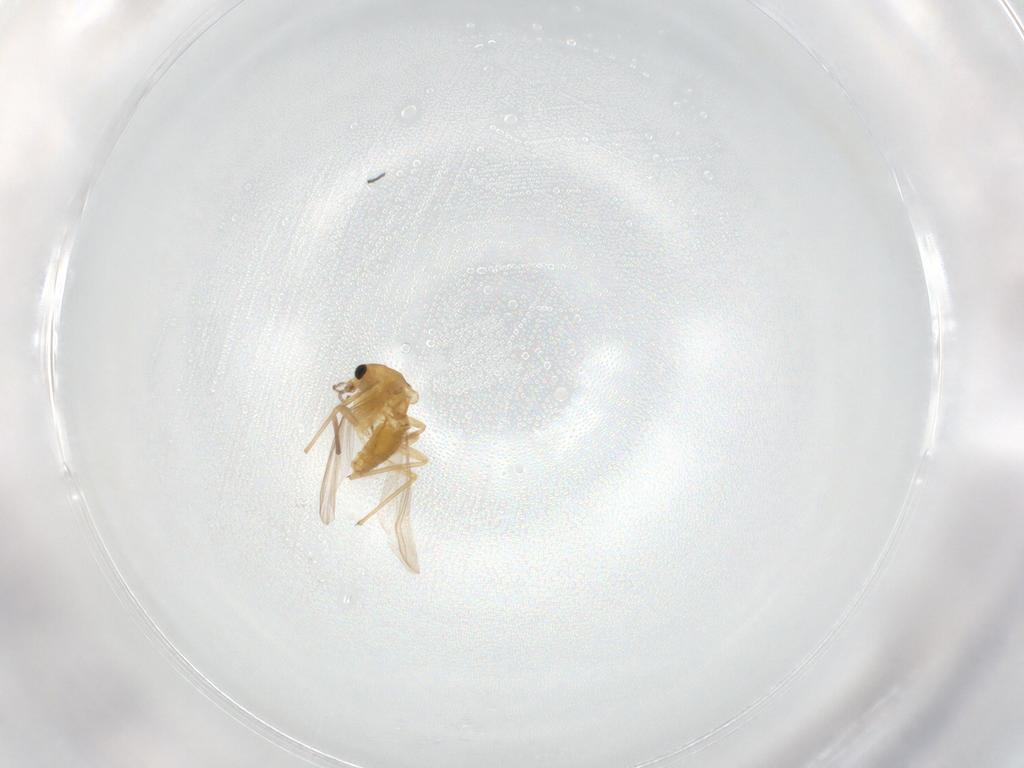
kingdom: Animalia
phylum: Arthropoda
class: Insecta
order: Diptera
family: Chironomidae
